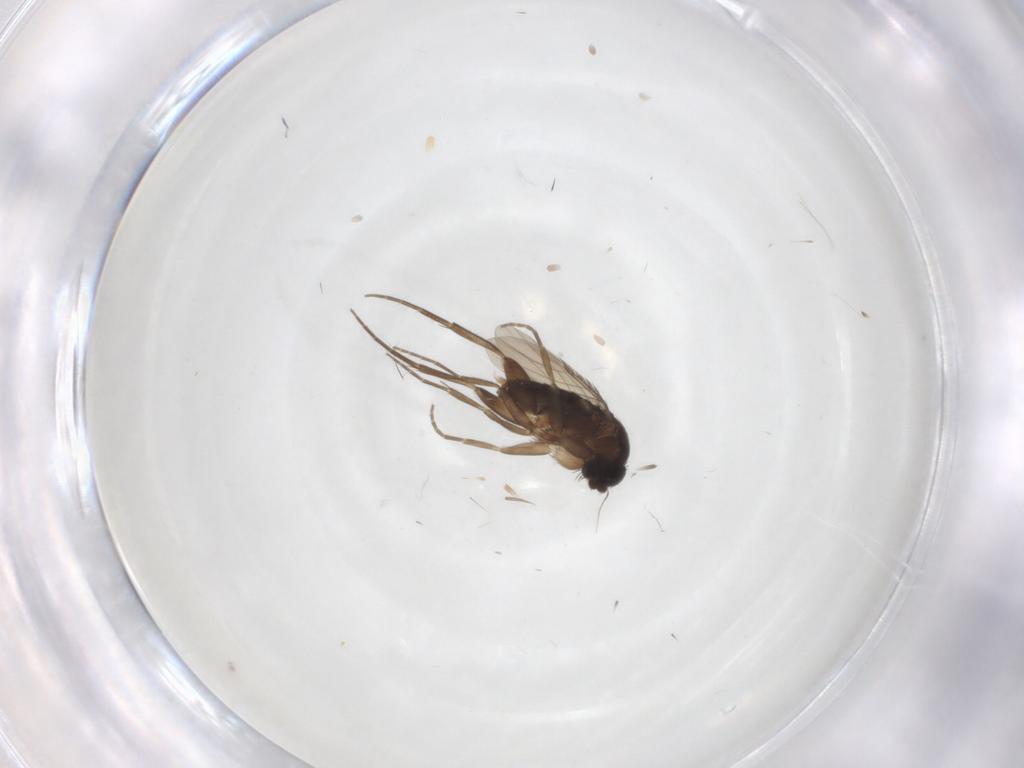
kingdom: Animalia
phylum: Arthropoda
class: Insecta
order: Diptera
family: Phoridae
